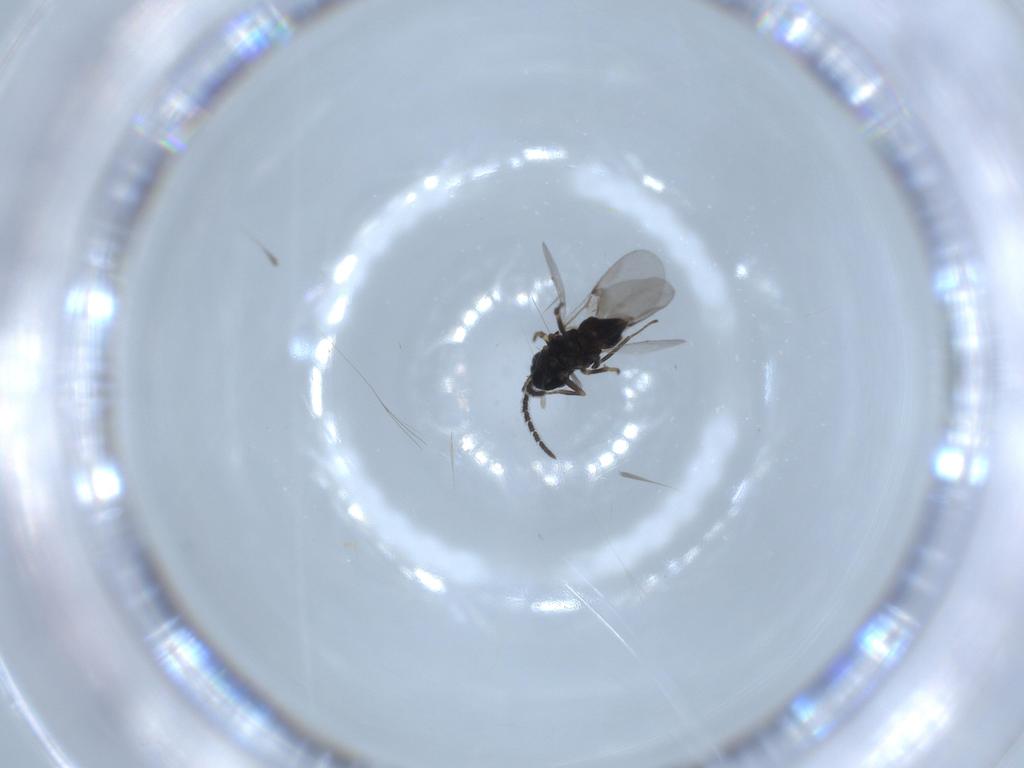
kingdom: Animalia
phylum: Arthropoda
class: Insecta
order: Hymenoptera
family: Encyrtidae
